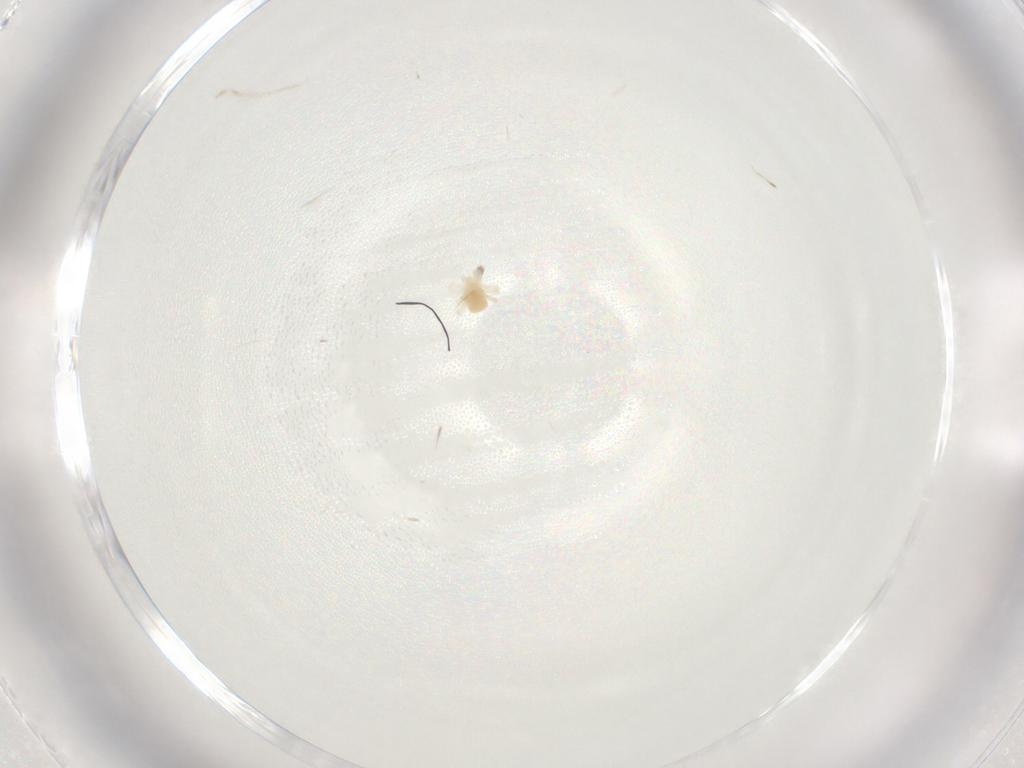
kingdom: Animalia
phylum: Arthropoda
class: Arachnida
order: Trombidiformes
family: Anystidae
